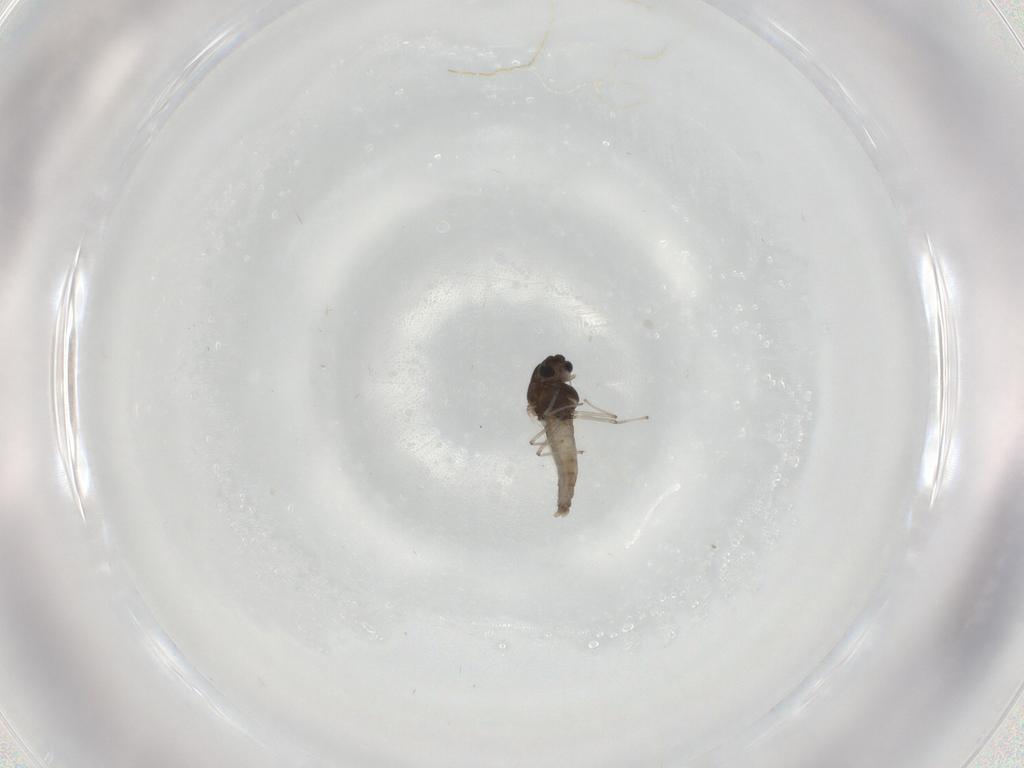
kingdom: Animalia
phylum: Arthropoda
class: Insecta
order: Diptera
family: Chironomidae
